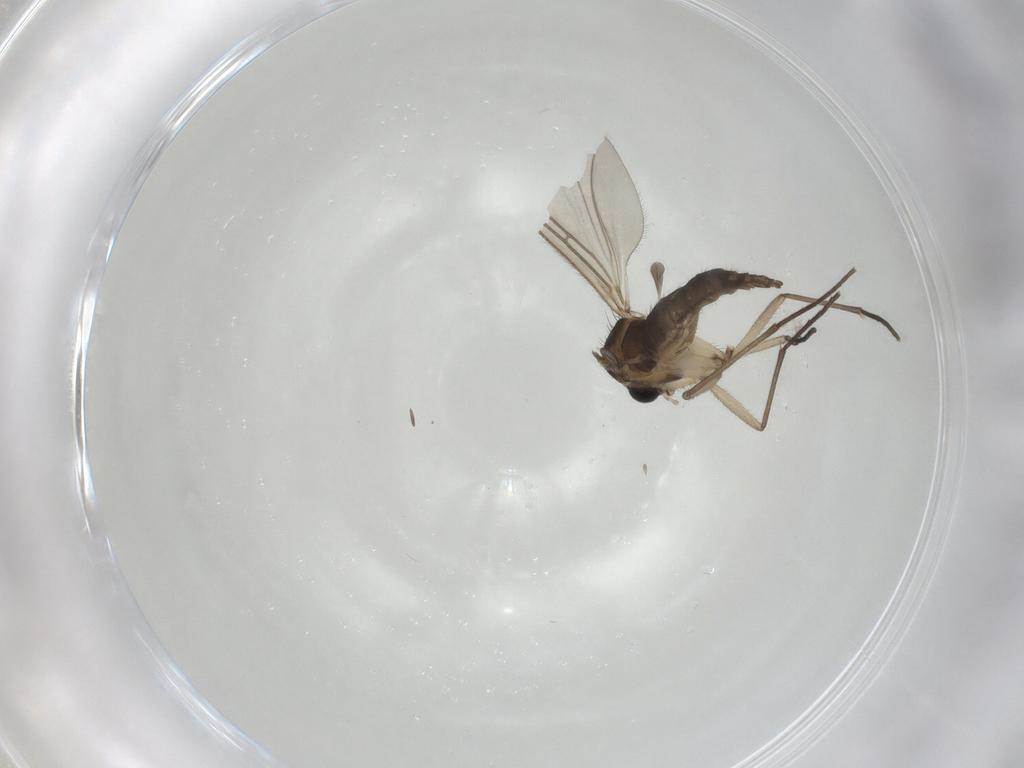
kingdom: Animalia
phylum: Arthropoda
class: Insecta
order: Diptera
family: Sciaridae
